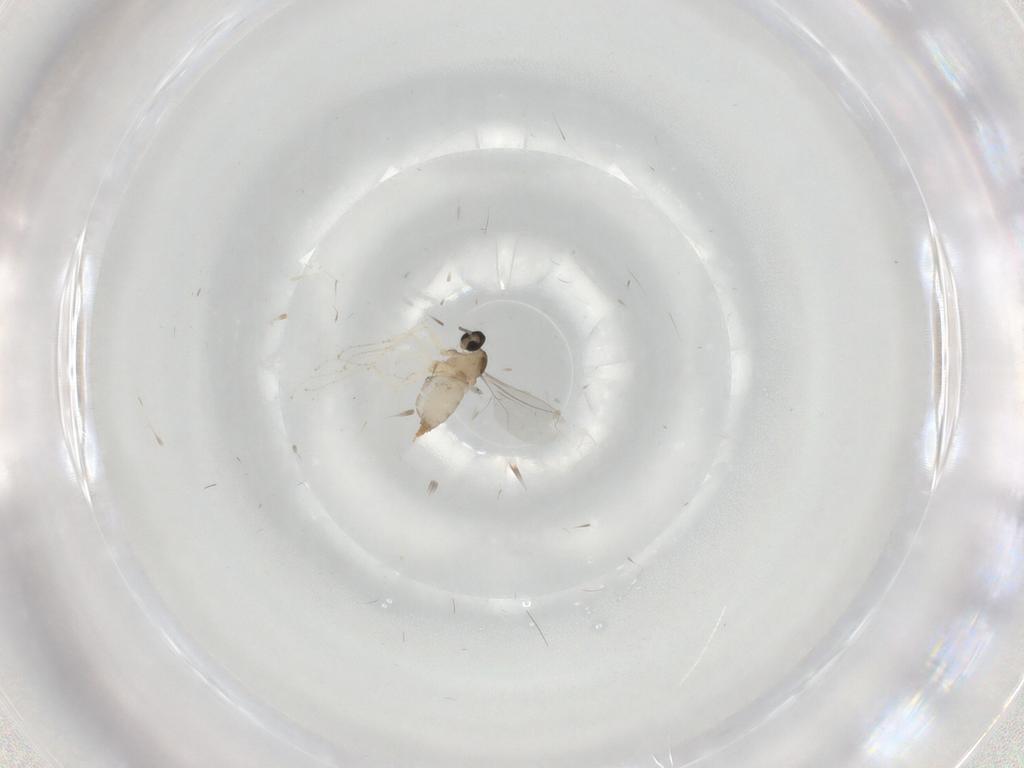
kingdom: Animalia
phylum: Arthropoda
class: Insecta
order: Diptera
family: Cecidomyiidae
